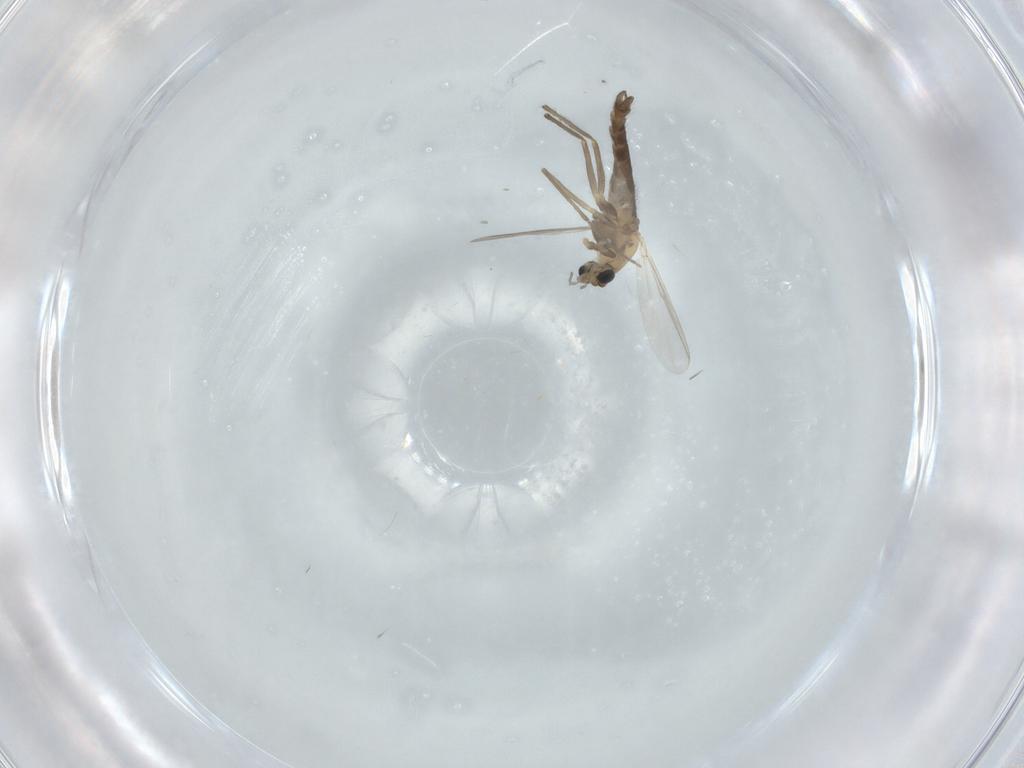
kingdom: Animalia
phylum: Arthropoda
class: Insecta
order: Diptera
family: Chironomidae
